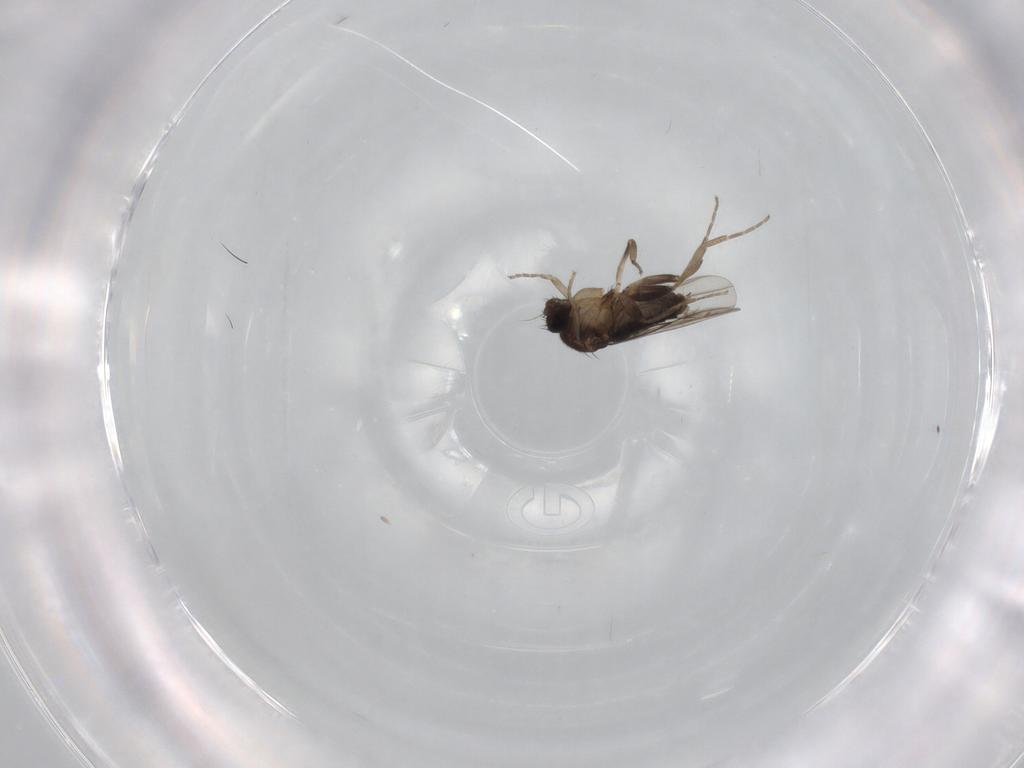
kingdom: Animalia
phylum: Arthropoda
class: Insecta
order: Diptera
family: Phoridae
